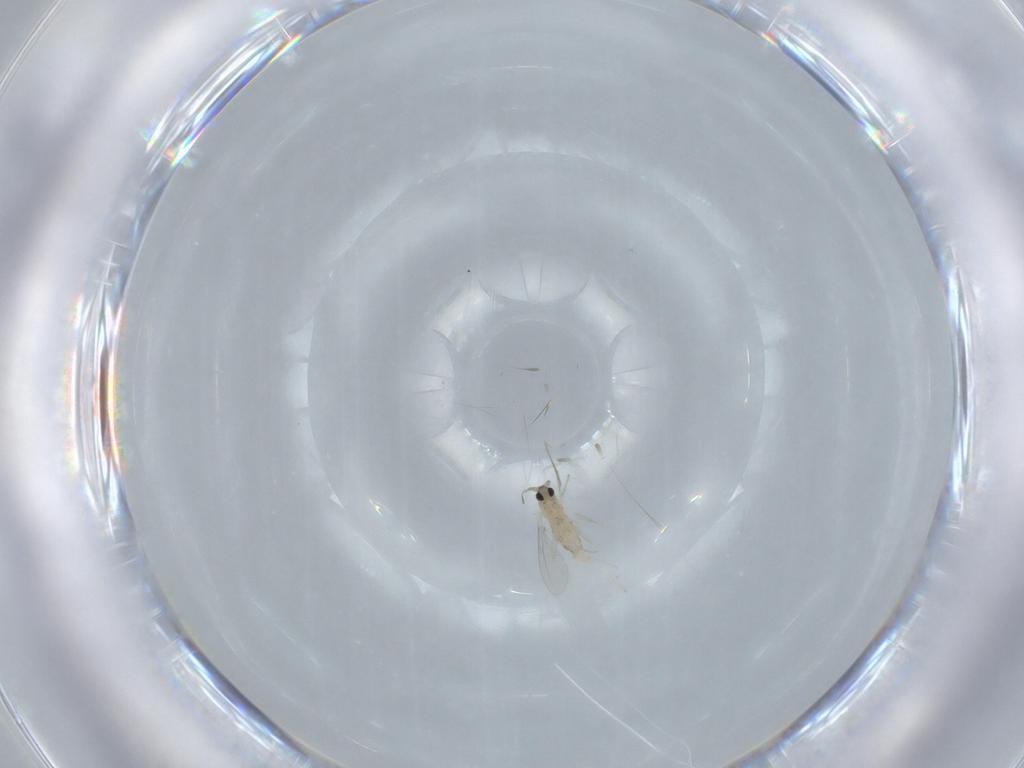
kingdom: Animalia
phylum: Arthropoda
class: Insecta
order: Diptera
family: Cecidomyiidae
